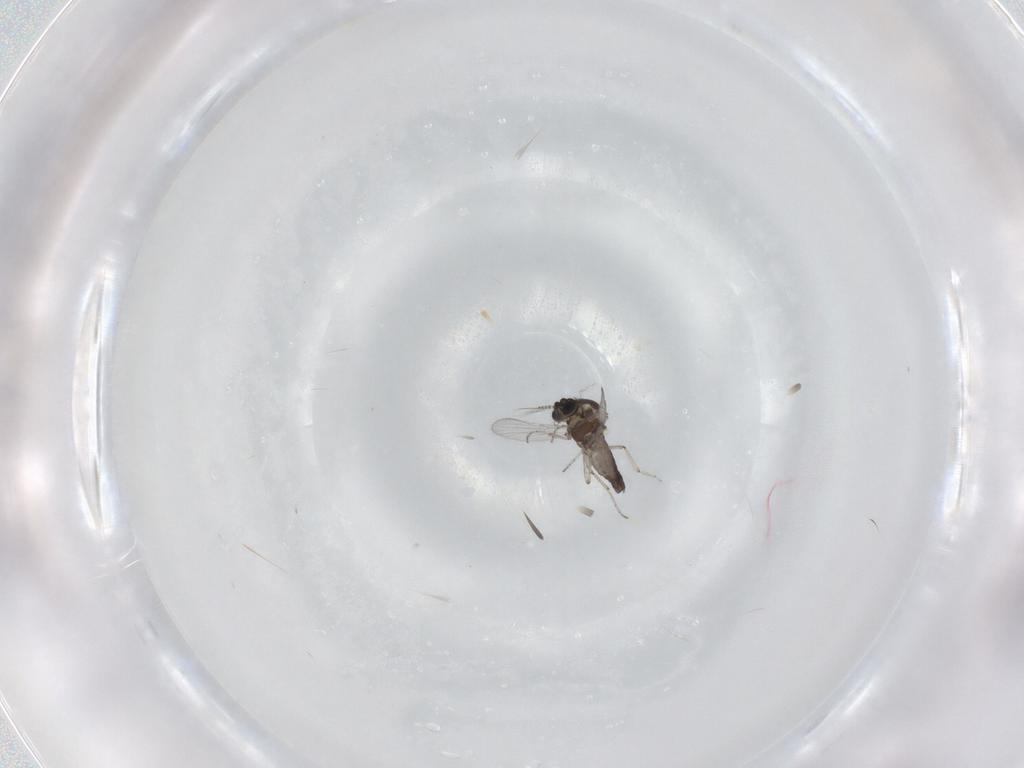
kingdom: Animalia
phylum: Arthropoda
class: Insecta
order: Diptera
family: Ceratopogonidae
